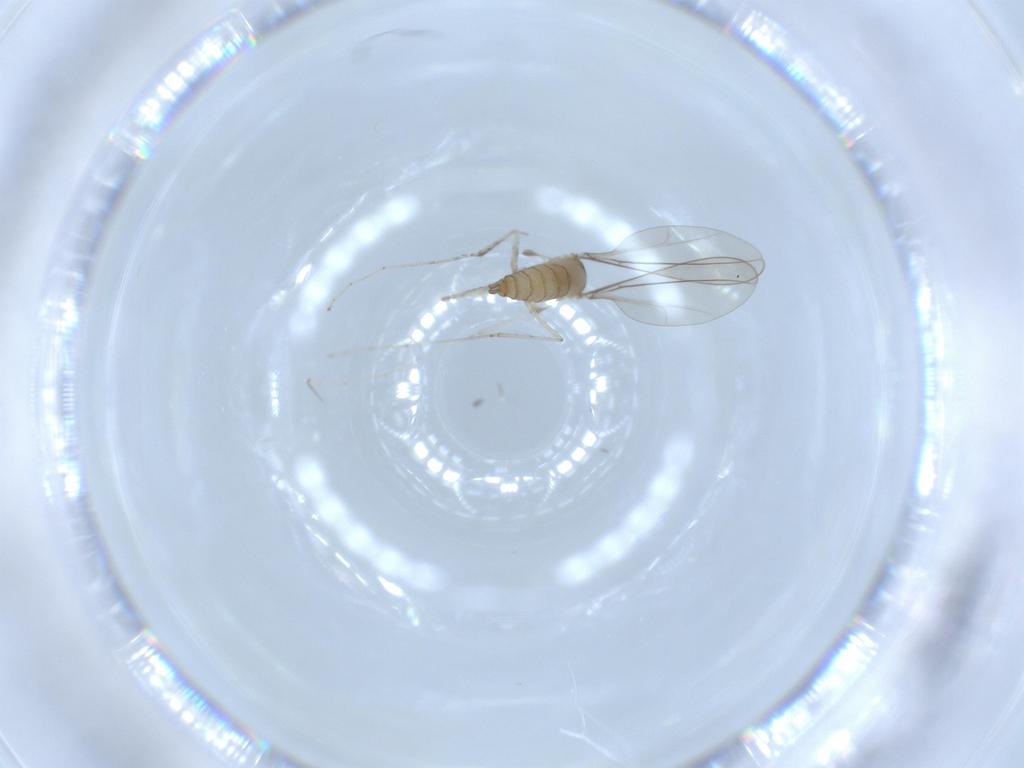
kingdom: Animalia
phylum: Arthropoda
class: Insecta
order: Diptera
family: Cecidomyiidae
